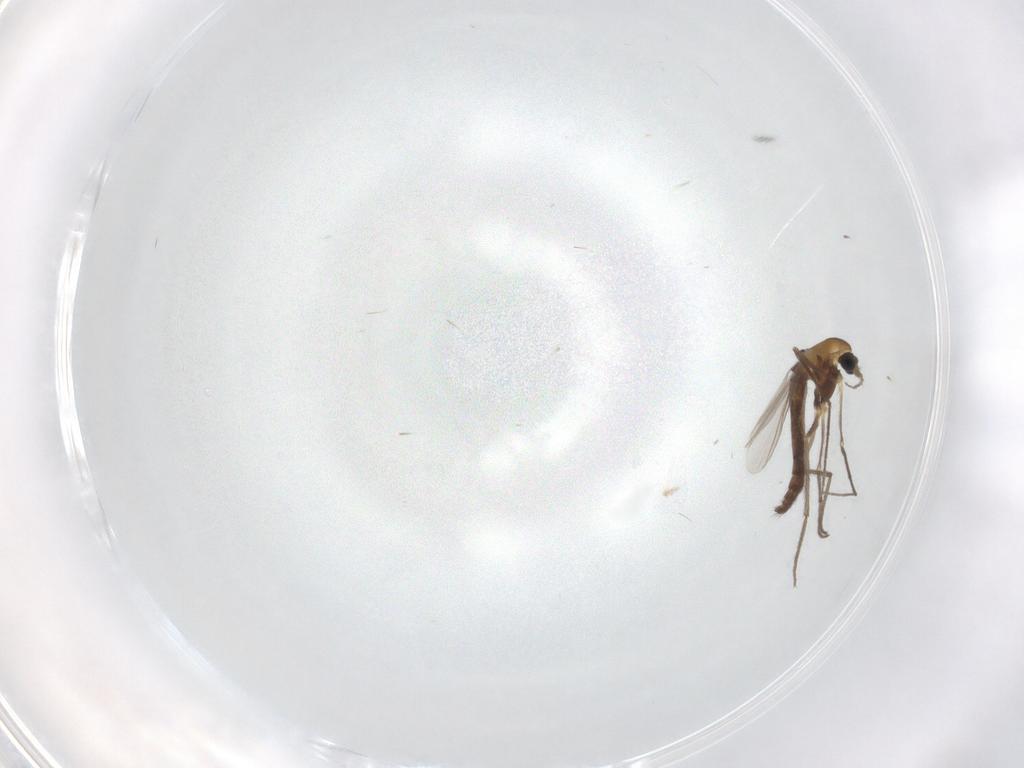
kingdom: Animalia
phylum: Arthropoda
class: Insecta
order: Diptera
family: Chironomidae
